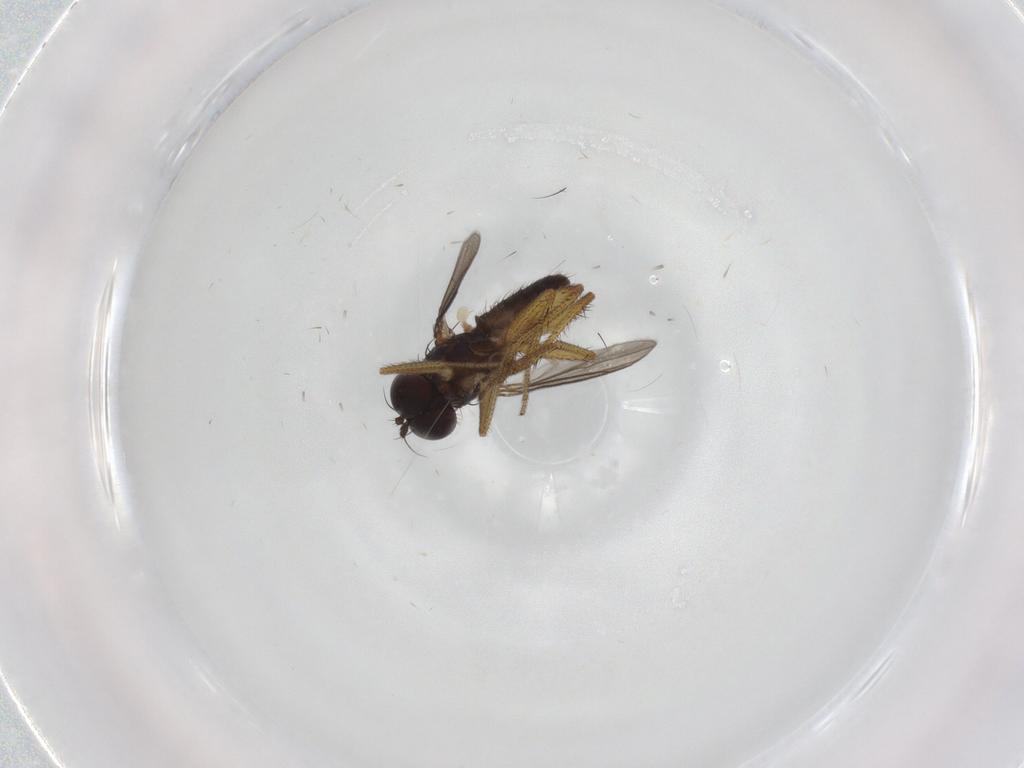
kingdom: Animalia
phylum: Arthropoda
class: Insecta
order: Diptera
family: Dolichopodidae
